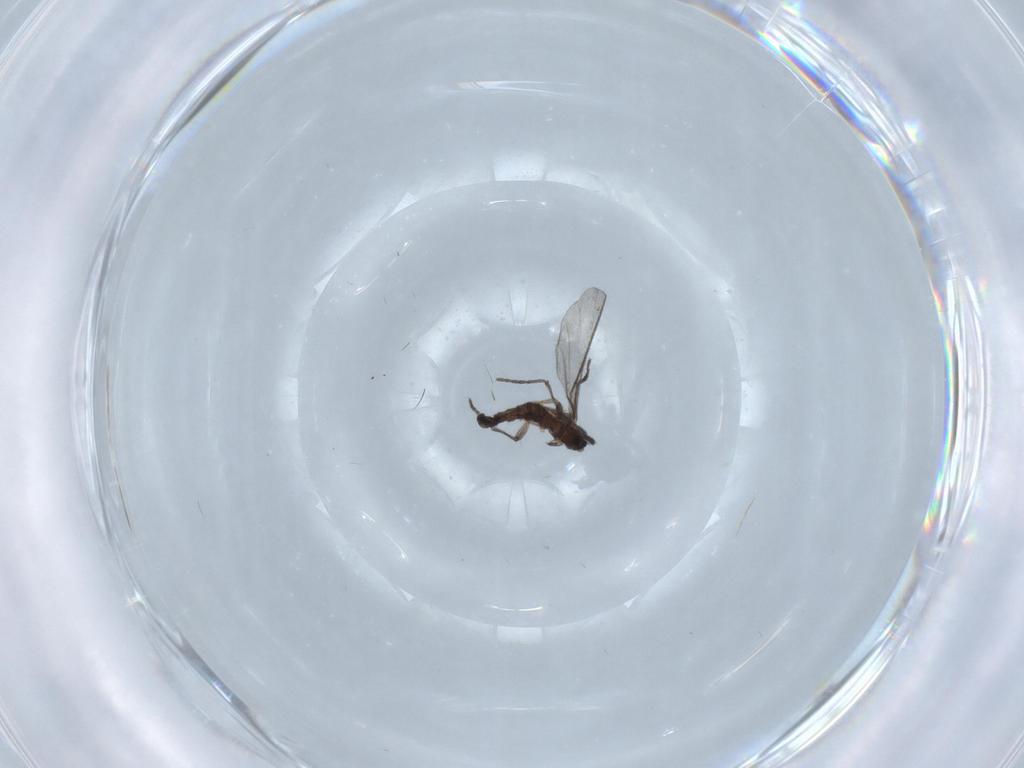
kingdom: Animalia
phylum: Arthropoda
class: Insecta
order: Diptera
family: Sciaridae
